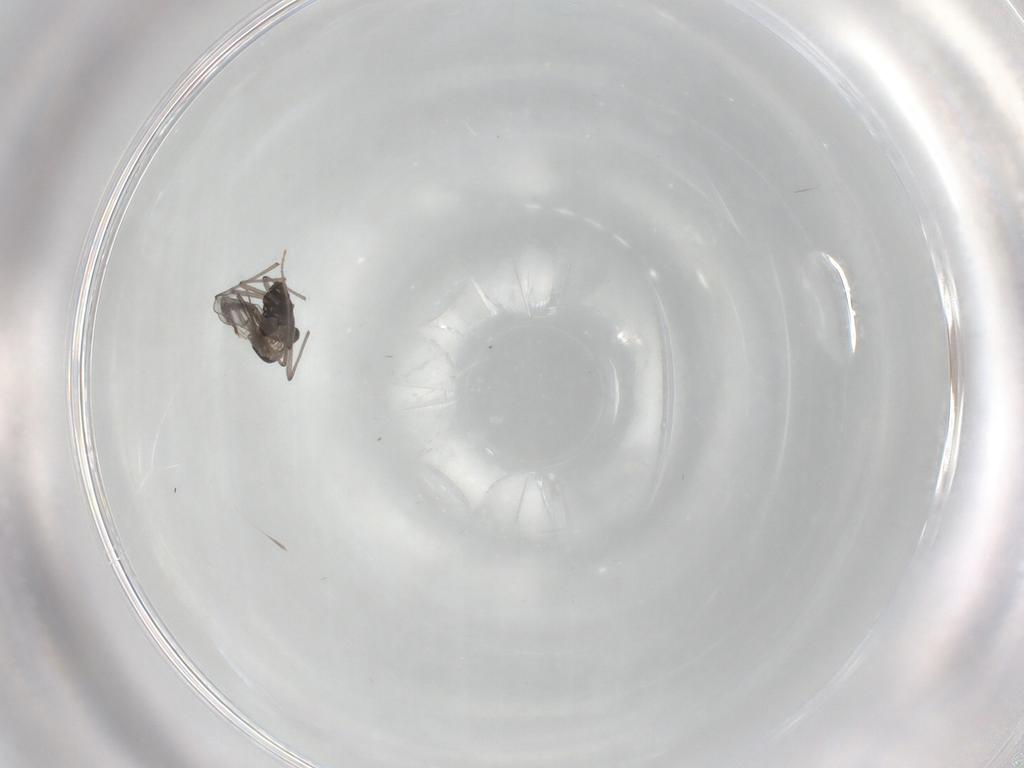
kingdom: Animalia
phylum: Arthropoda
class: Insecta
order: Diptera
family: Chironomidae
